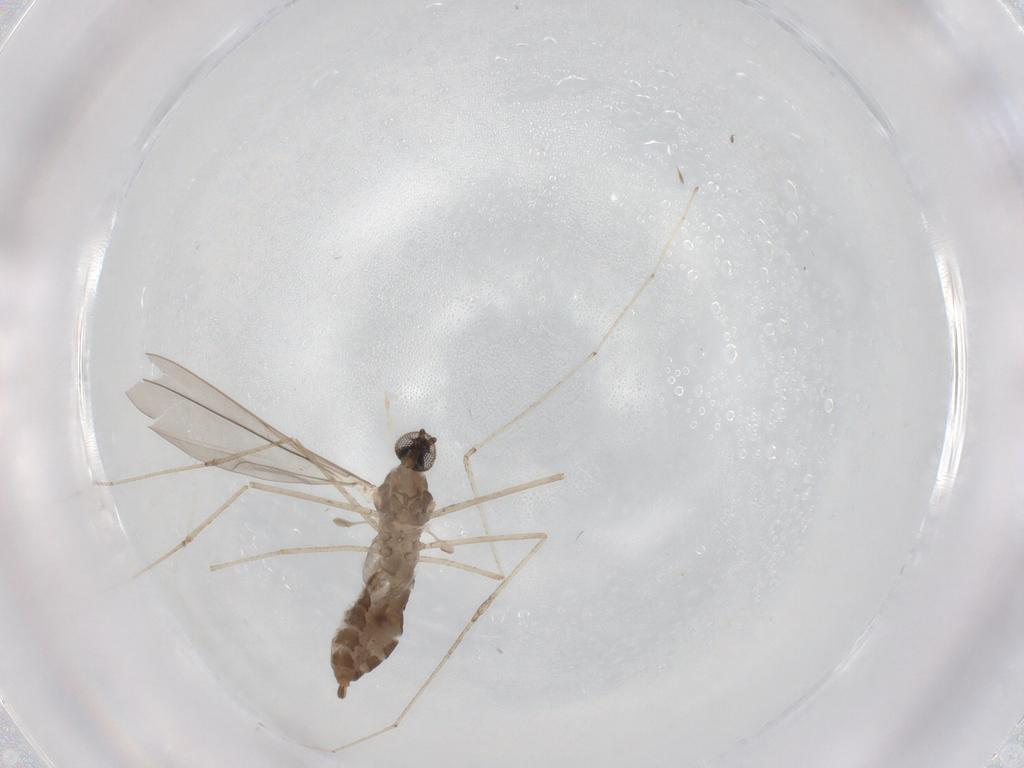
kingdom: Animalia
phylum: Arthropoda
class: Insecta
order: Diptera
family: Cecidomyiidae
